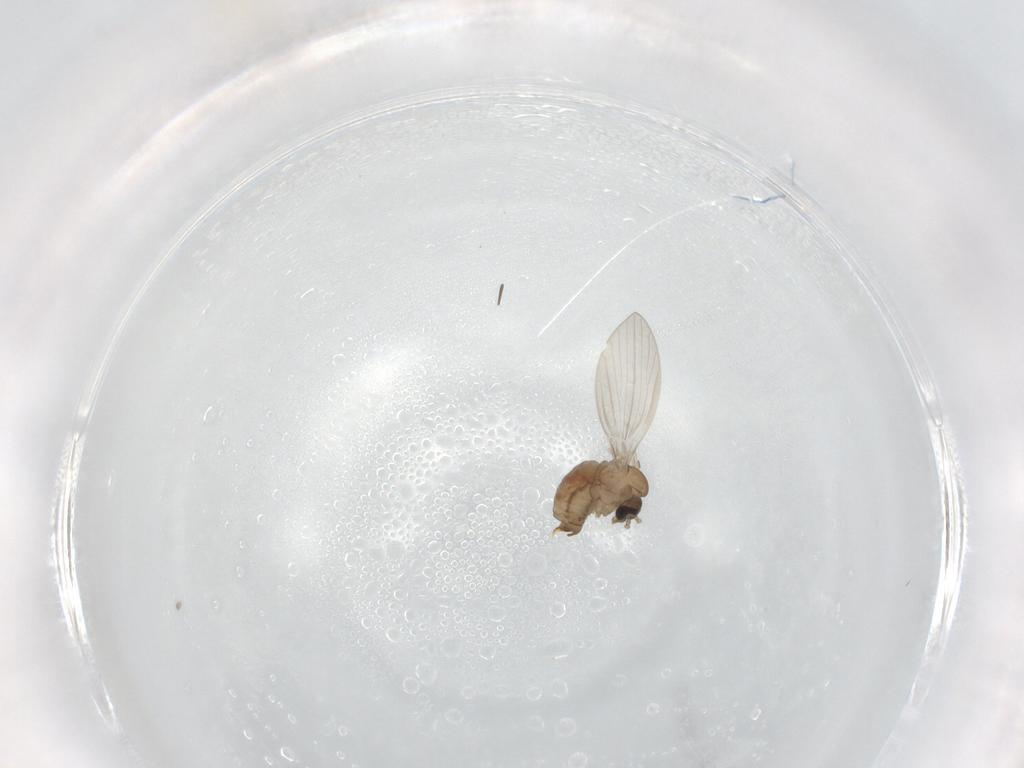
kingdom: Animalia
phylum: Arthropoda
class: Insecta
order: Diptera
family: Psychodidae
